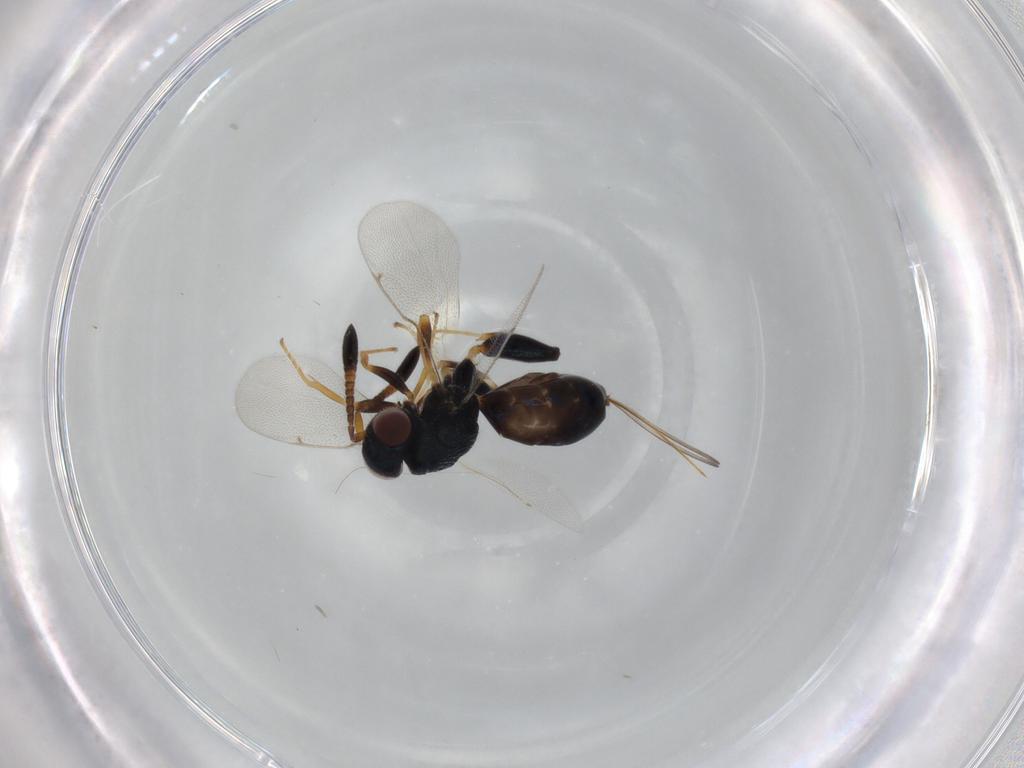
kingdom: Animalia
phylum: Arthropoda
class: Insecta
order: Hymenoptera
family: Torymidae
